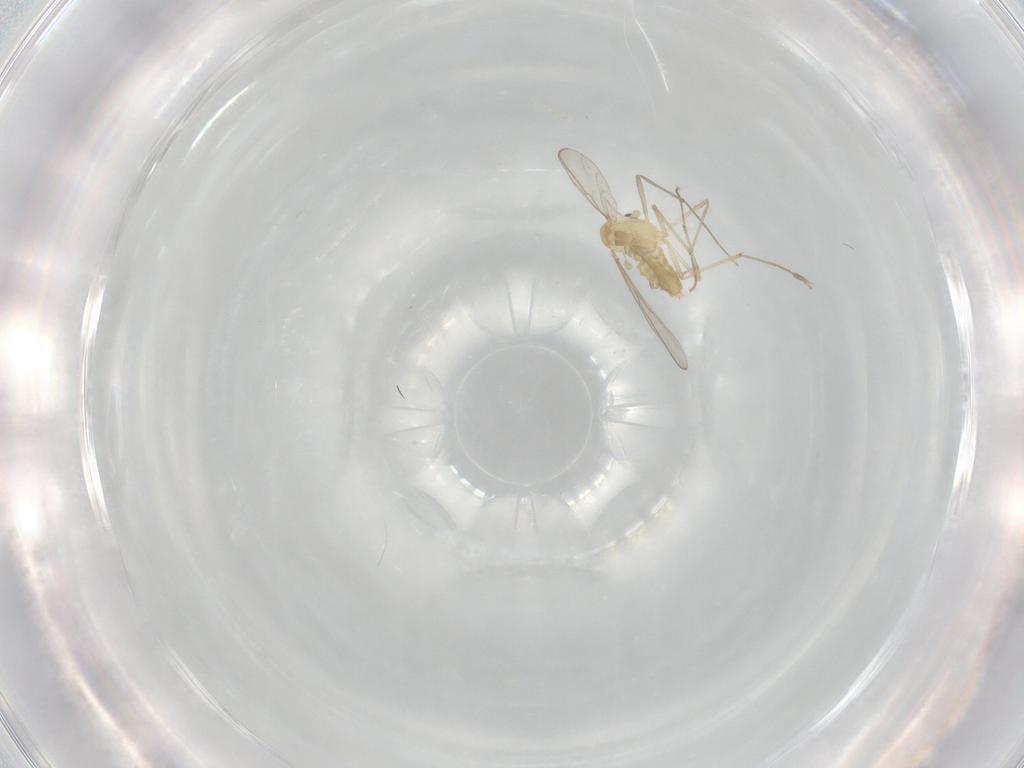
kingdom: Animalia
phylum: Arthropoda
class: Insecta
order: Diptera
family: Chironomidae
